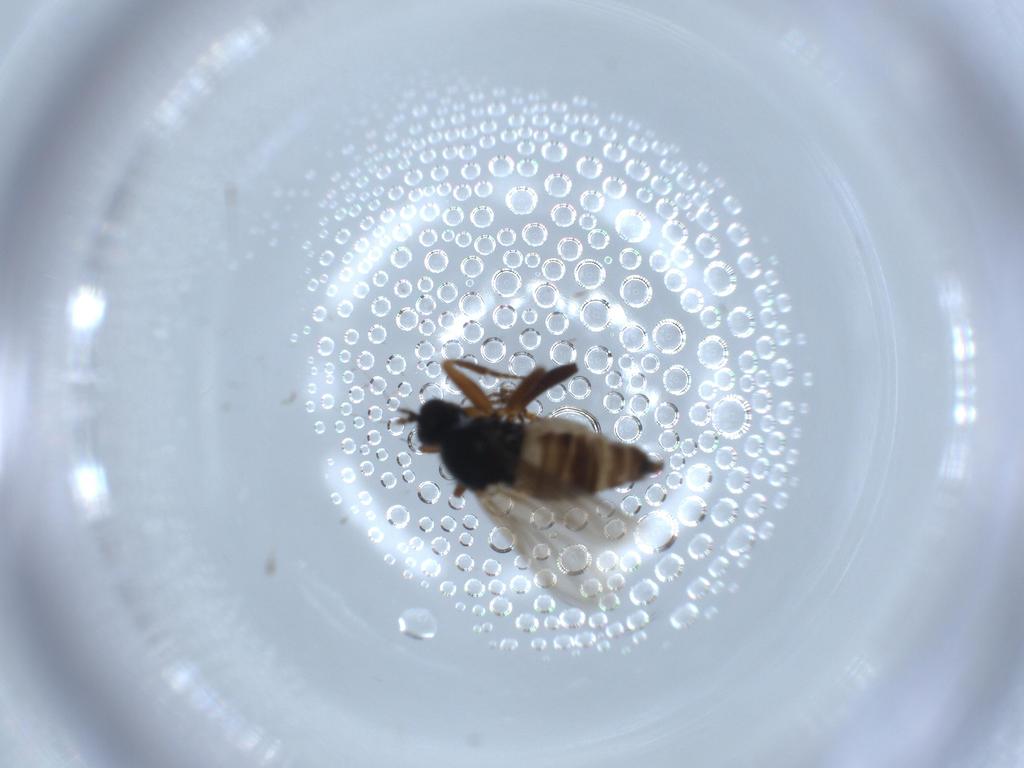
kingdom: Animalia
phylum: Arthropoda
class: Insecta
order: Diptera
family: Hybotidae
